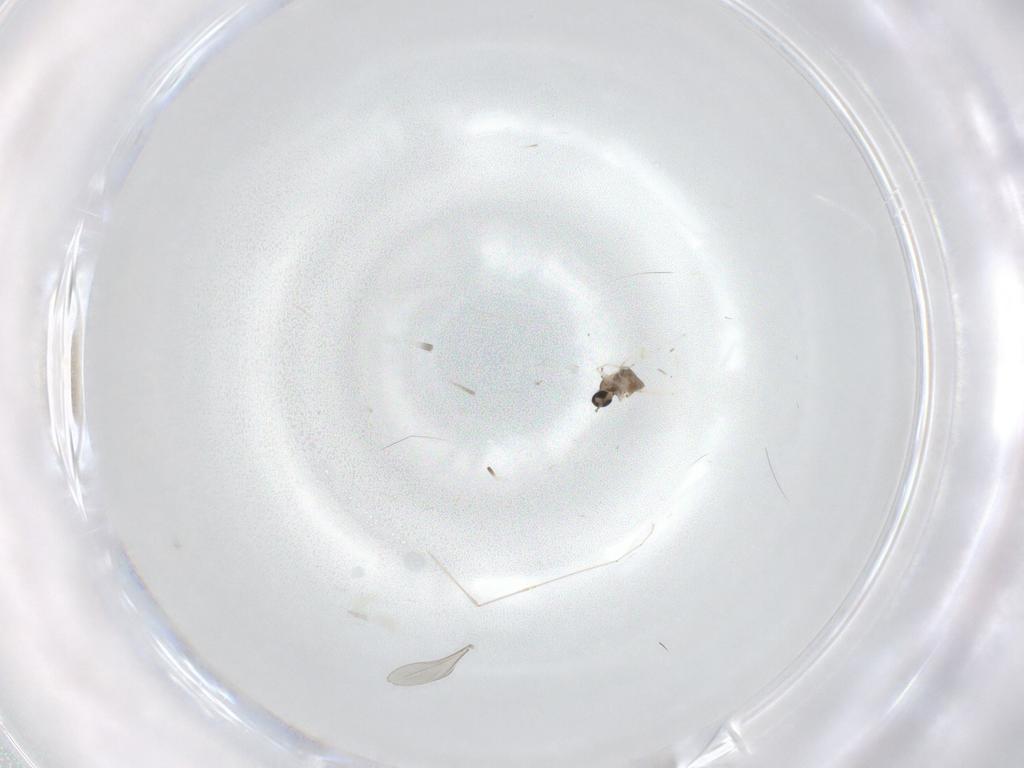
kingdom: Animalia
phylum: Arthropoda
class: Insecta
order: Diptera
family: Cecidomyiidae
